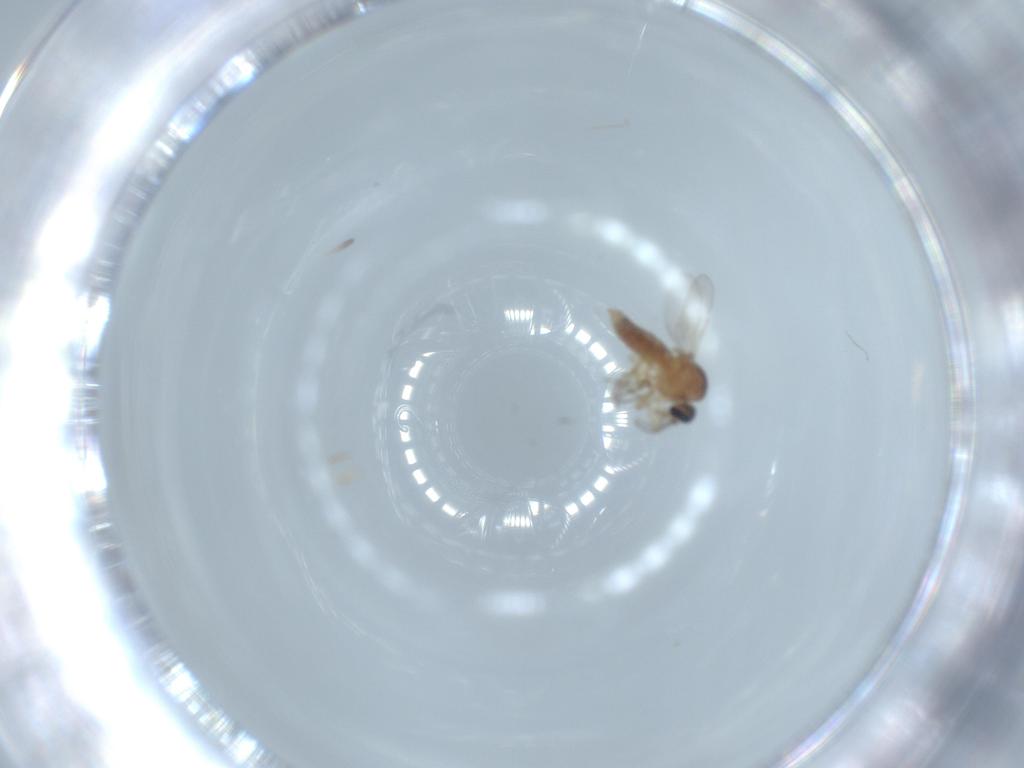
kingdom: Animalia
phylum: Arthropoda
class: Insecta
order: Diptera
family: Ceratopogonidae
